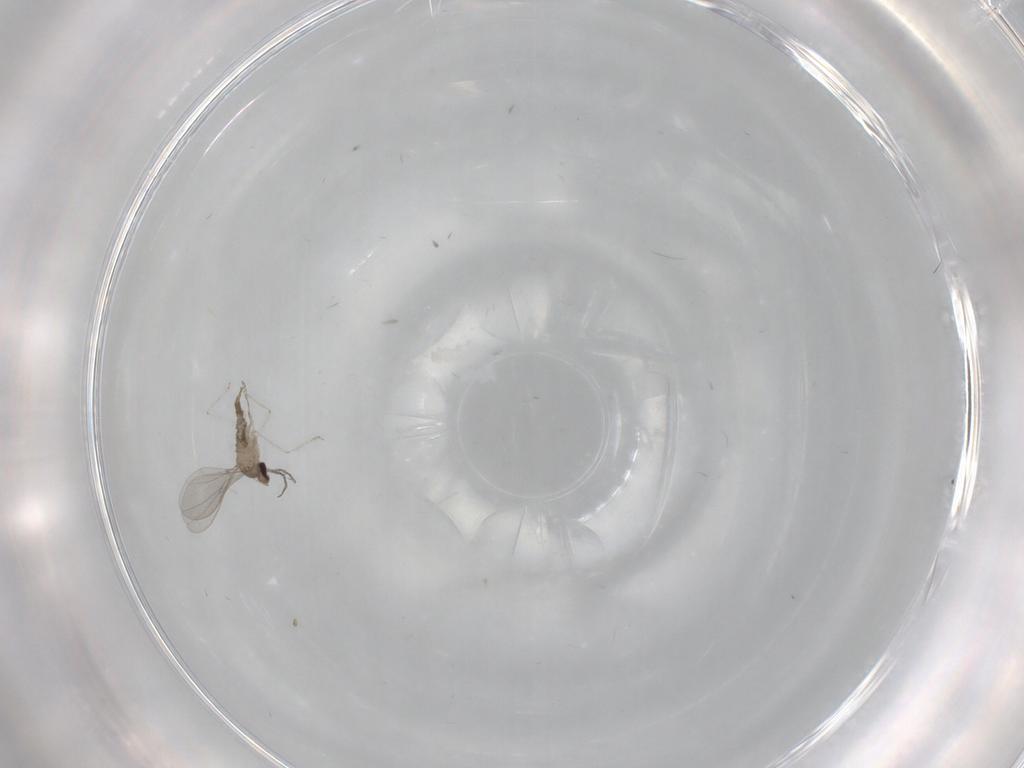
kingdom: Animalia
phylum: Arthropoda
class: Insecta
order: Diptera
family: Cecidomyiidae
